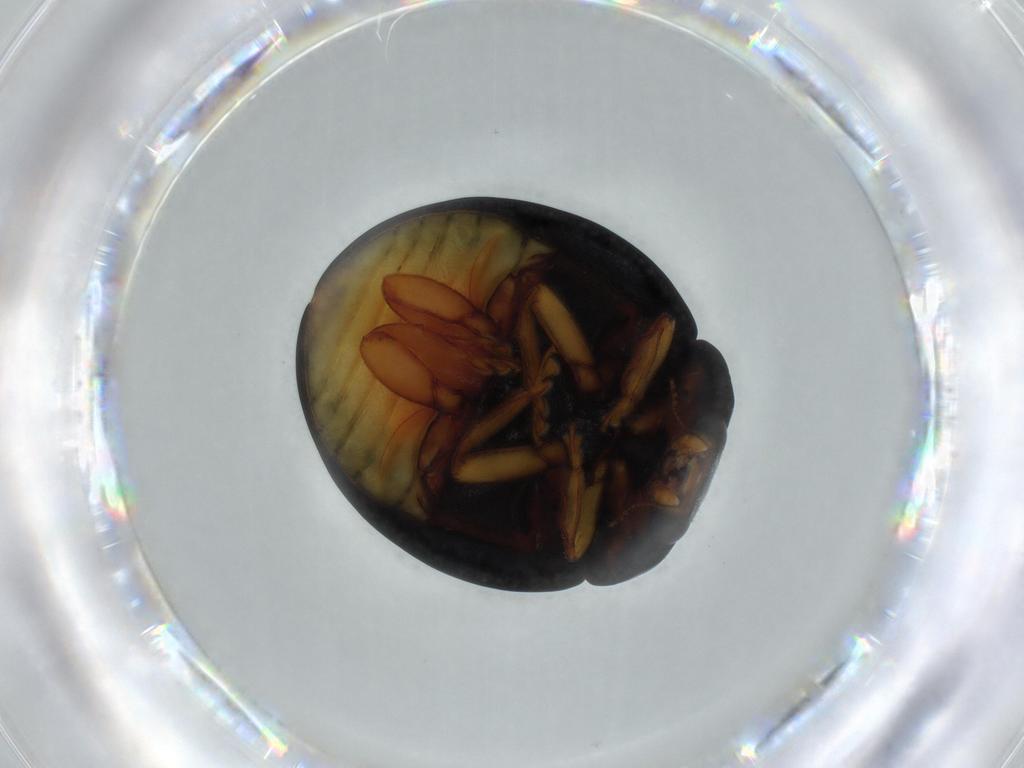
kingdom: Animalia
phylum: Arthropoda
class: Insecta
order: Coleoptera
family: Coccinellidae
